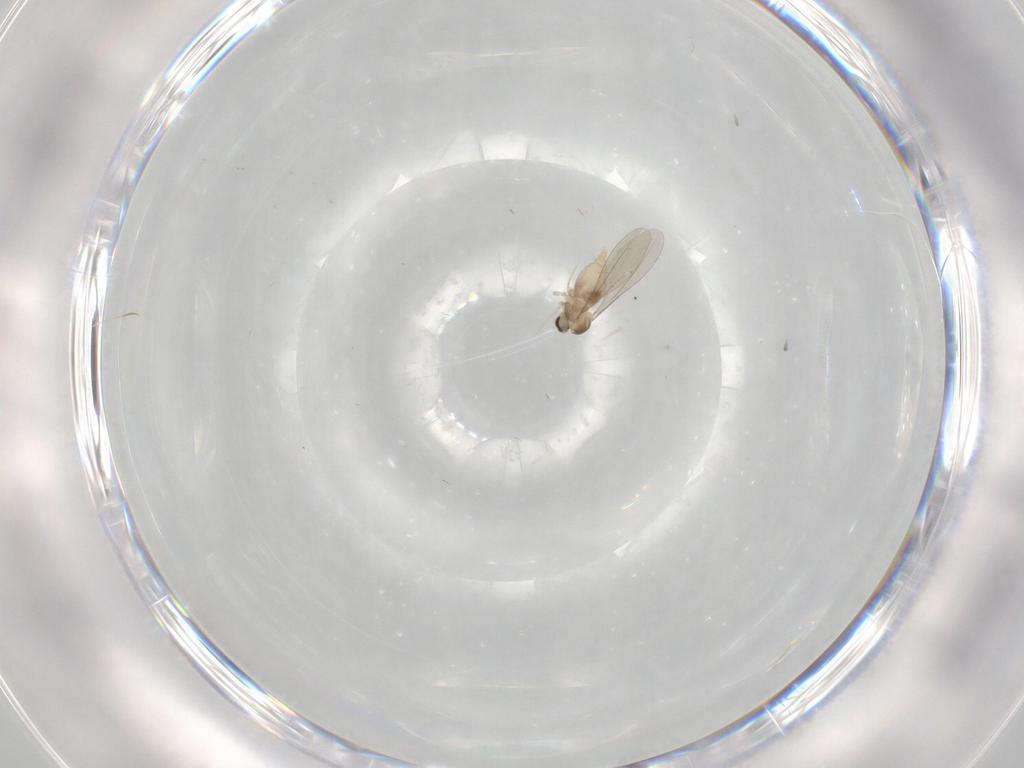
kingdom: Animalia
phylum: Arthropoda
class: Insecta
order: Diptera
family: Cecidomyiidae
